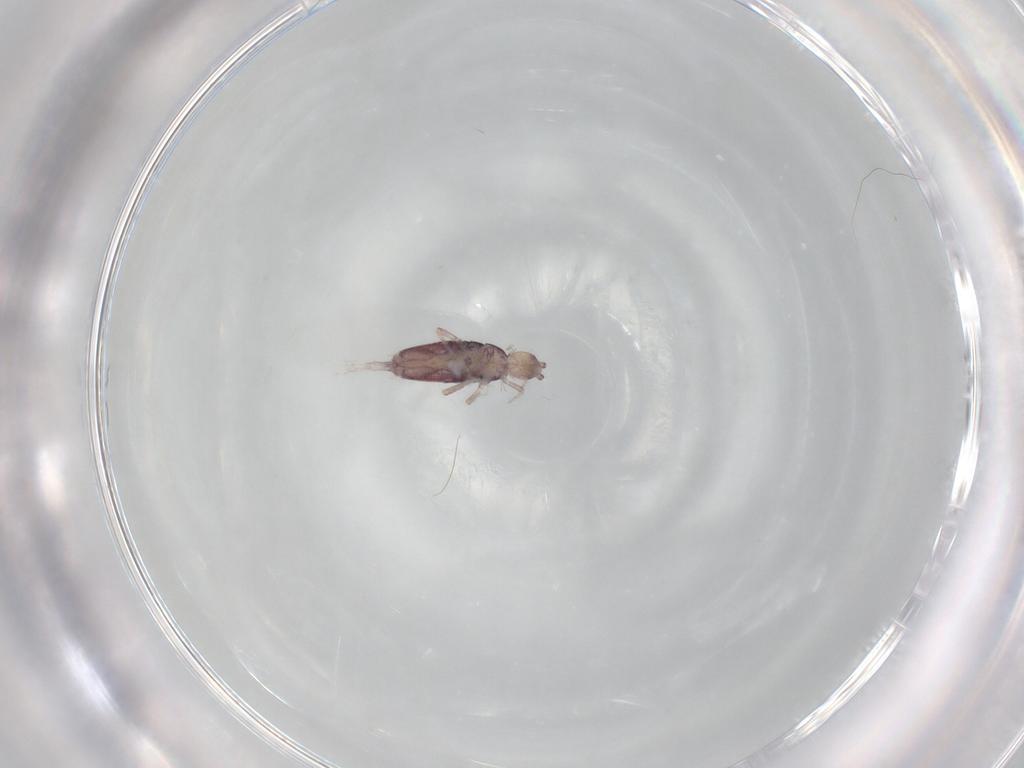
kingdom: Animalia
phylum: Arthropoda
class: Collembola
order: Entomobryomorpha
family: Entomobryidae
